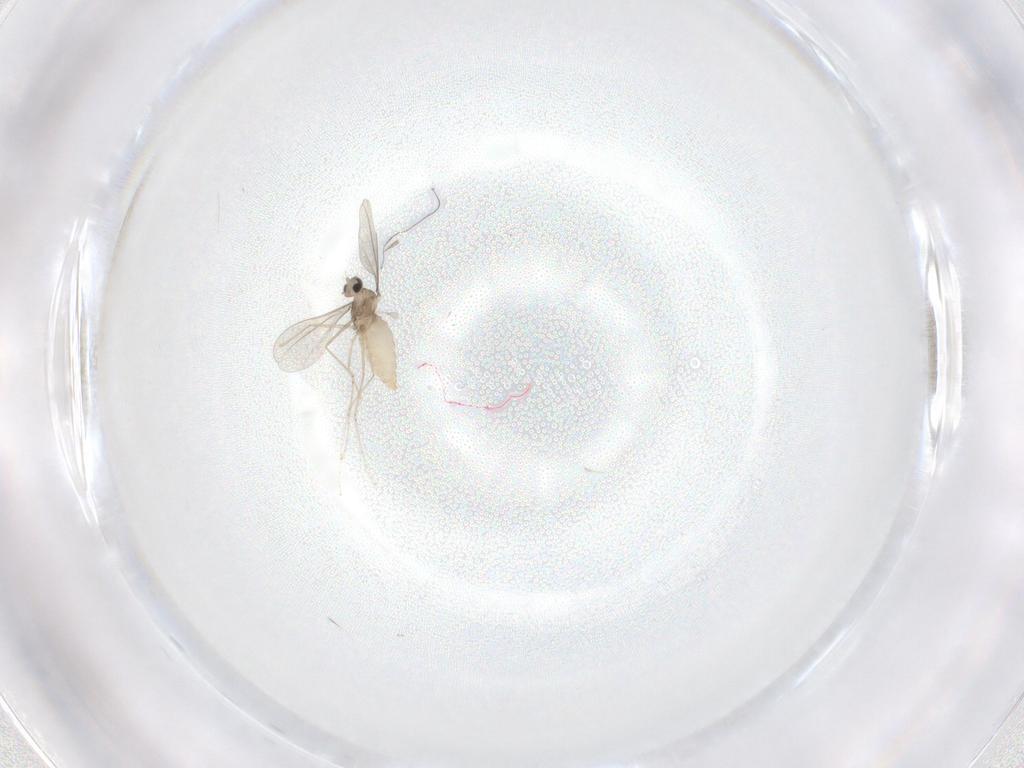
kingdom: Animalia
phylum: Arthropoda
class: Insecta
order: Diptera
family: Cecidomyiidae
